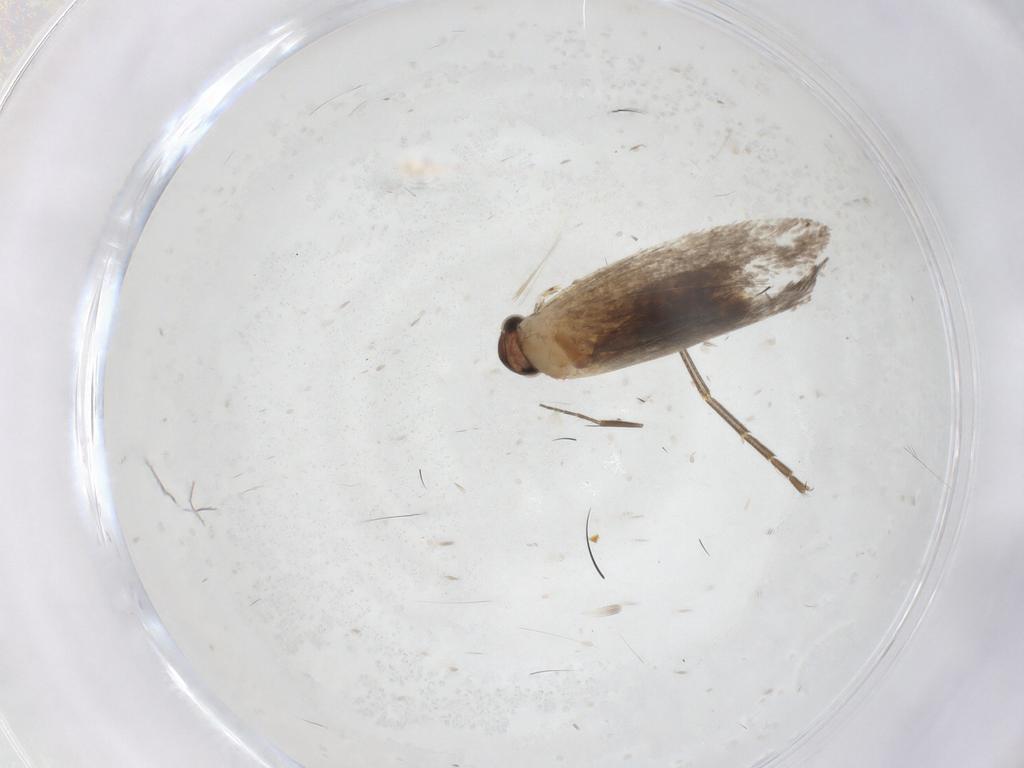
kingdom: Animalia
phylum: Arthropoda
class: Insecta
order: Lepidoptera
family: Dryadaulidae
